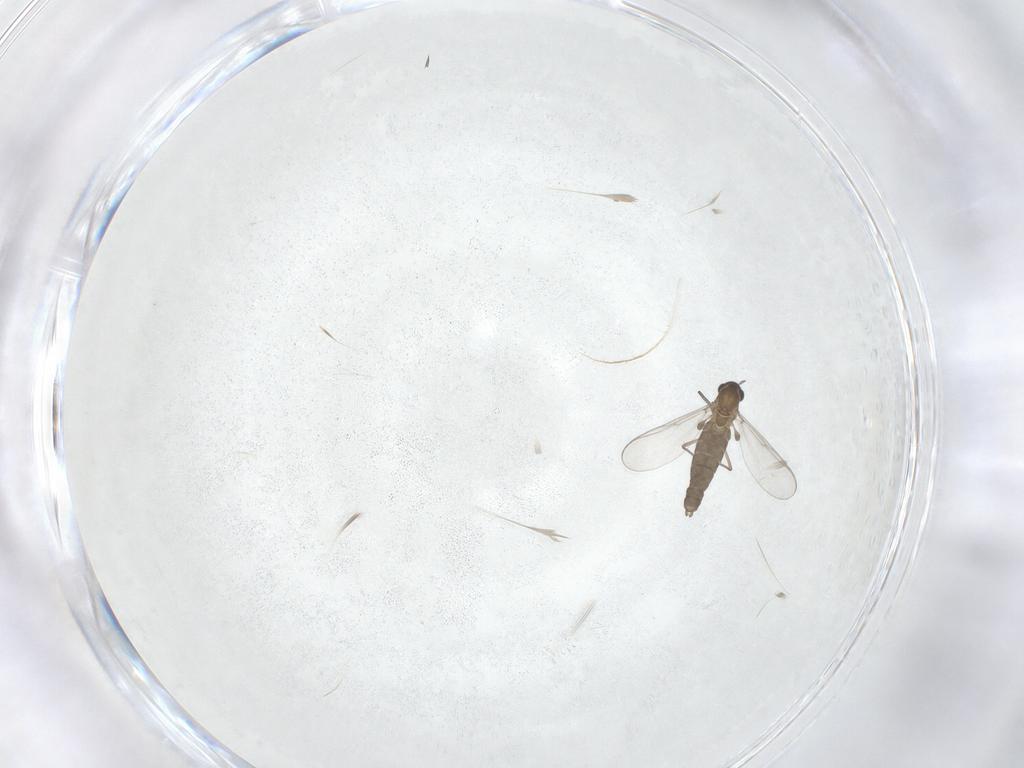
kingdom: Animalia
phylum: Arthropoda
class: Insecta
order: Diptera
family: Chironomidae
